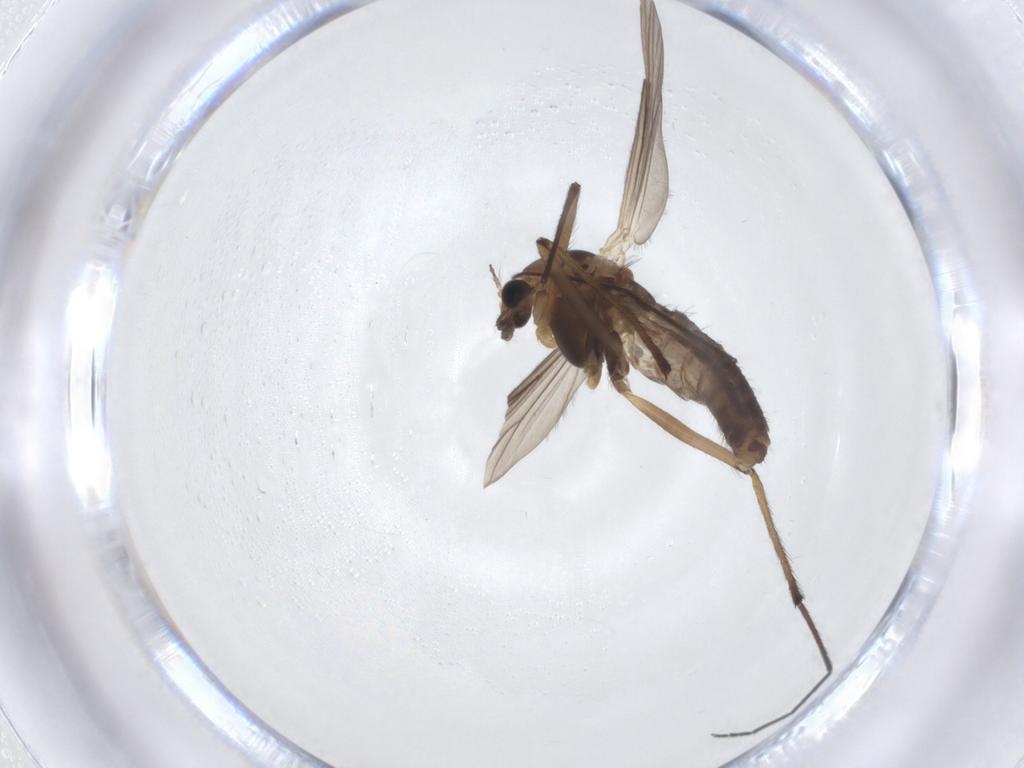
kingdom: Animalia
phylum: Arthropoda
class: Insecta
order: Diptera
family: Chironomidae
